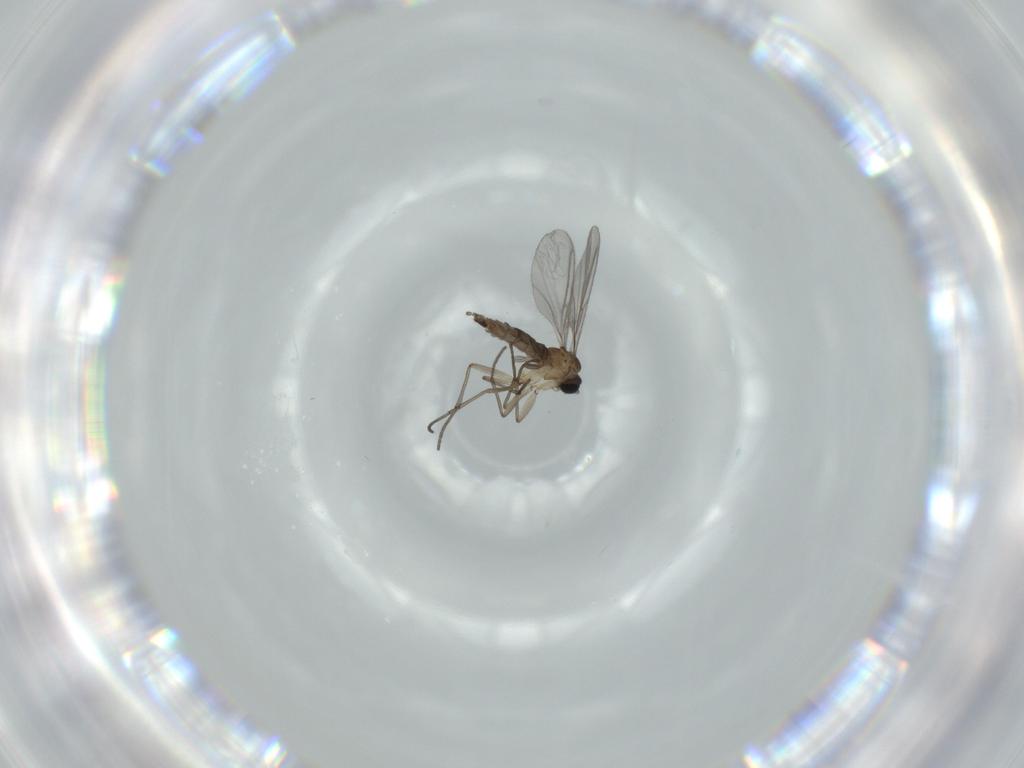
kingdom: Animalia
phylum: Arthropoda
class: Insecta
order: Diptera
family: Sciaridae
